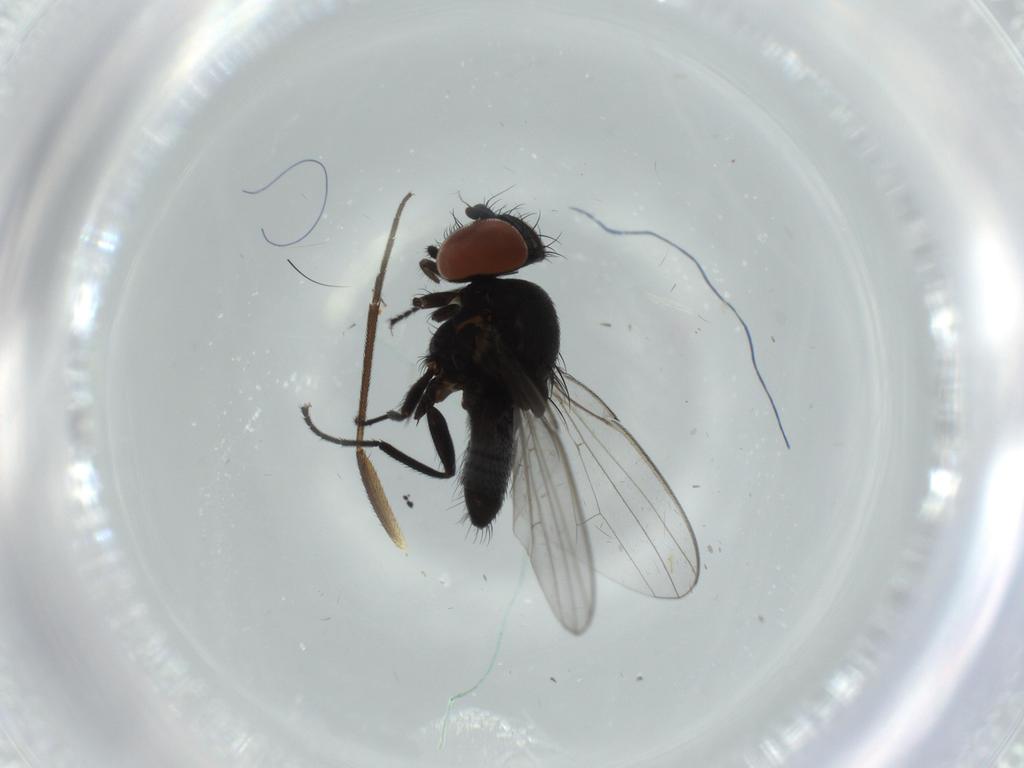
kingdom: Animalia
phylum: Arthropoda
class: Insecta
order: Diptera
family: Milichiidae
